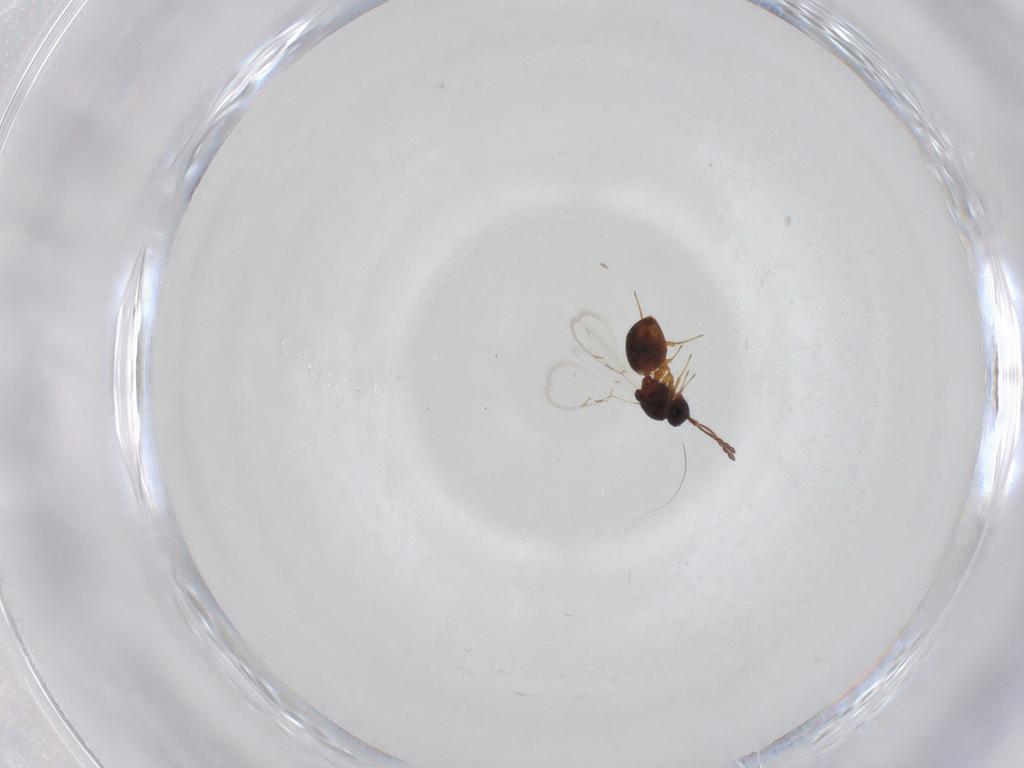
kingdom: Animalia
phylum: Arthropoda
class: Insecta
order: Hymenoptera
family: Figitidae
